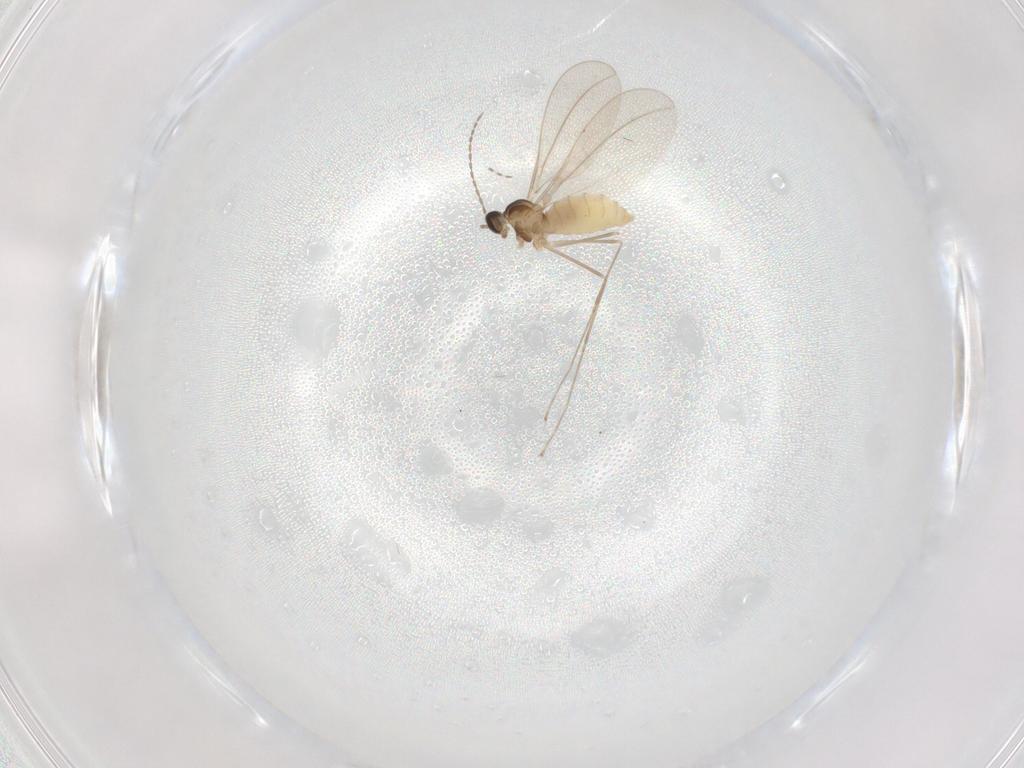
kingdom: Animalia
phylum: Arthropoda
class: Insecta
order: Diptera
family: Cecidomyiidae
